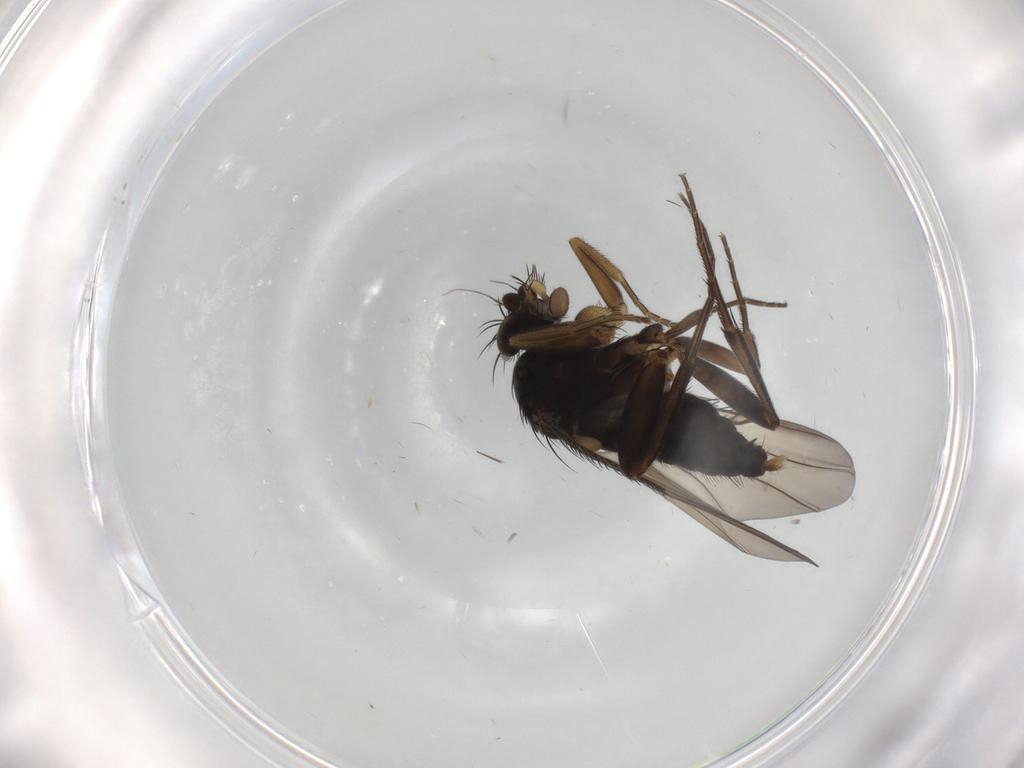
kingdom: Animalia
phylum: Arthropoda
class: Insecta
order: Diptera
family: Phoridae
